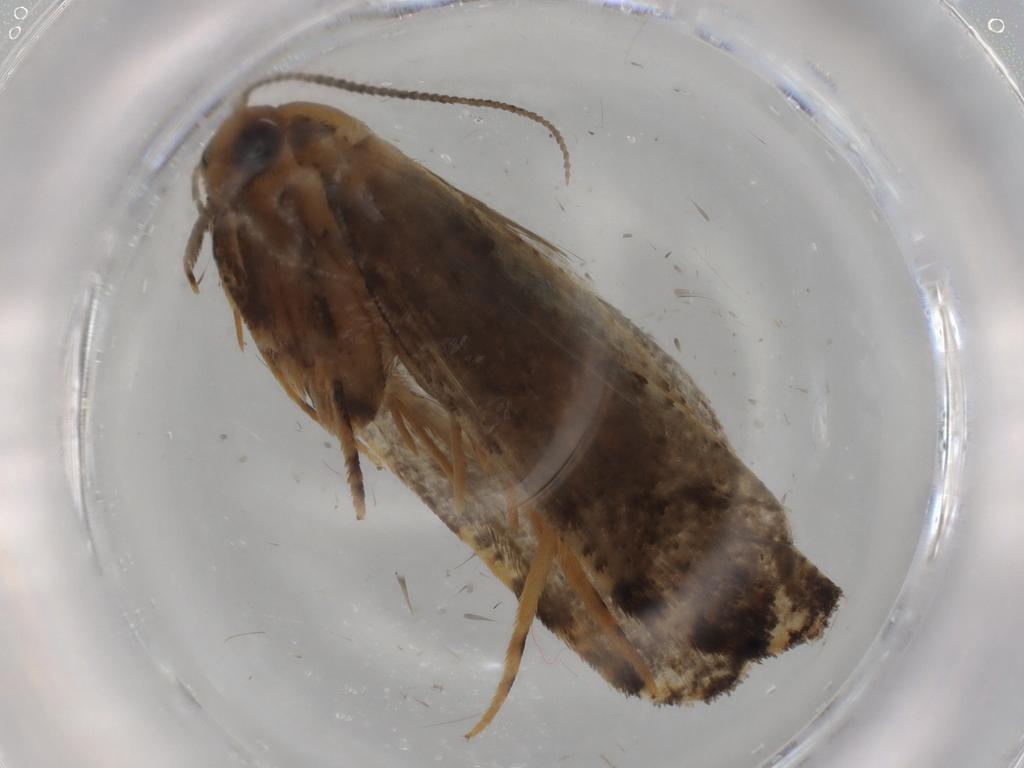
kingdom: Animalia
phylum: Arthropoda
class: Insecta
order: Lepidoptera
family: Tineidae
